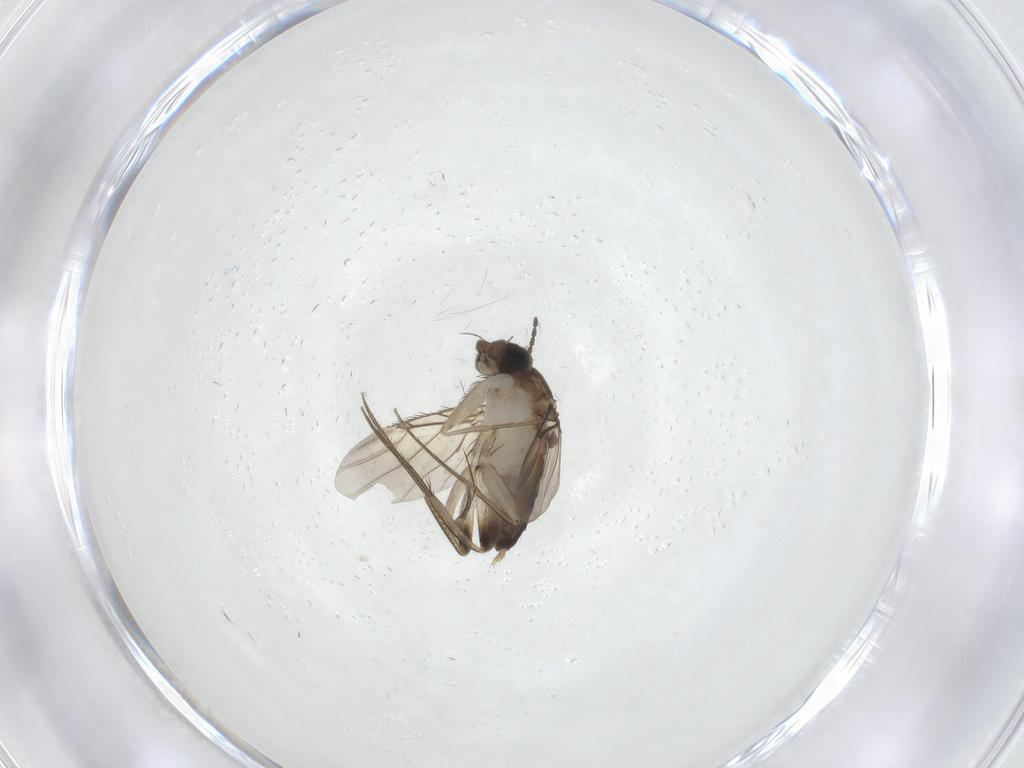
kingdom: Animalia
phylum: Arthropoda
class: Insecta
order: Diptera
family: Phoridae
